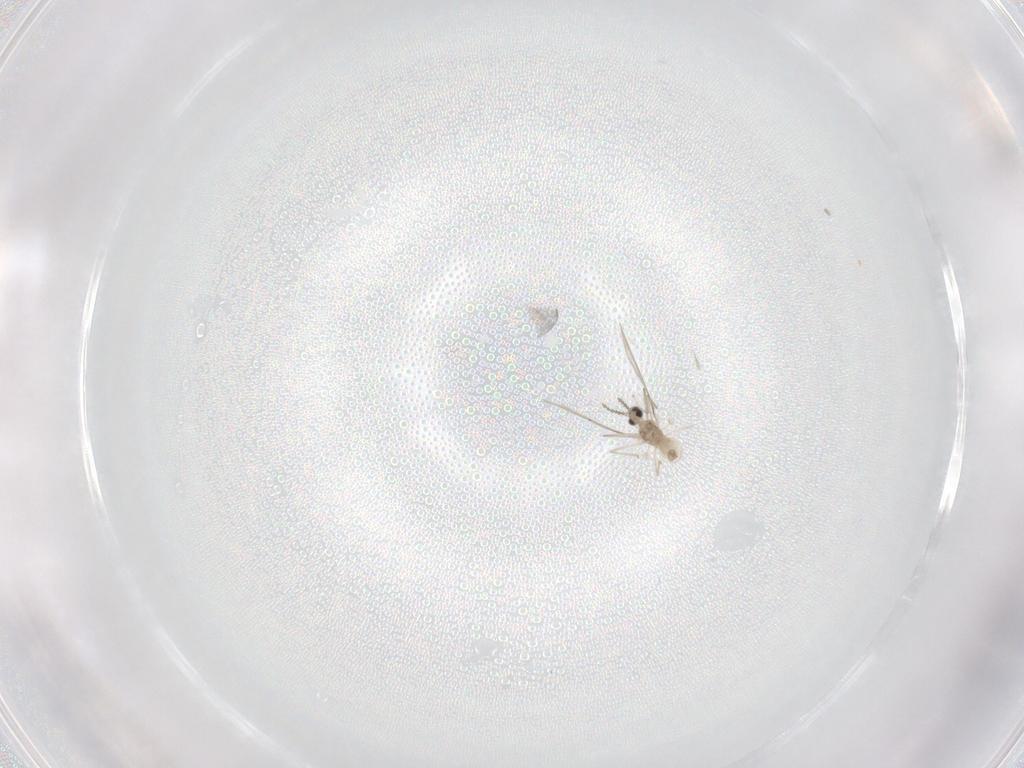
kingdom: Animalia
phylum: Arthropoda
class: Insecta
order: Diptera
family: Cecidomyiidae
